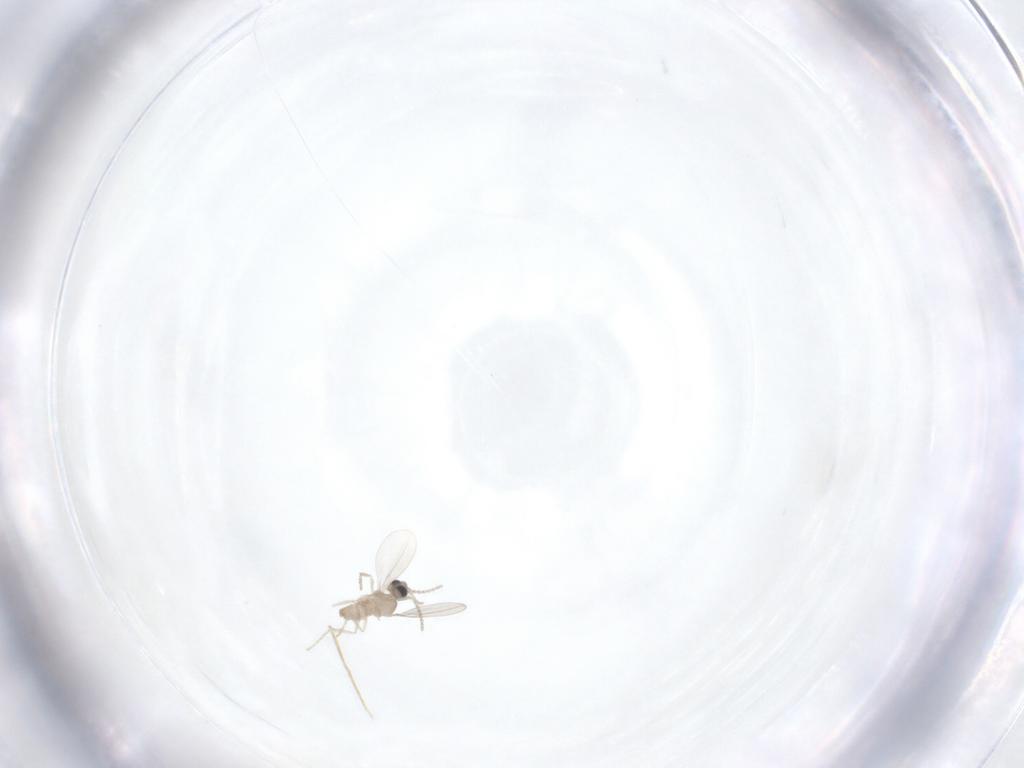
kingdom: Animalia
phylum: Arthropoda
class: Insecta
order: Diptera
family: Cecidomyiidae
